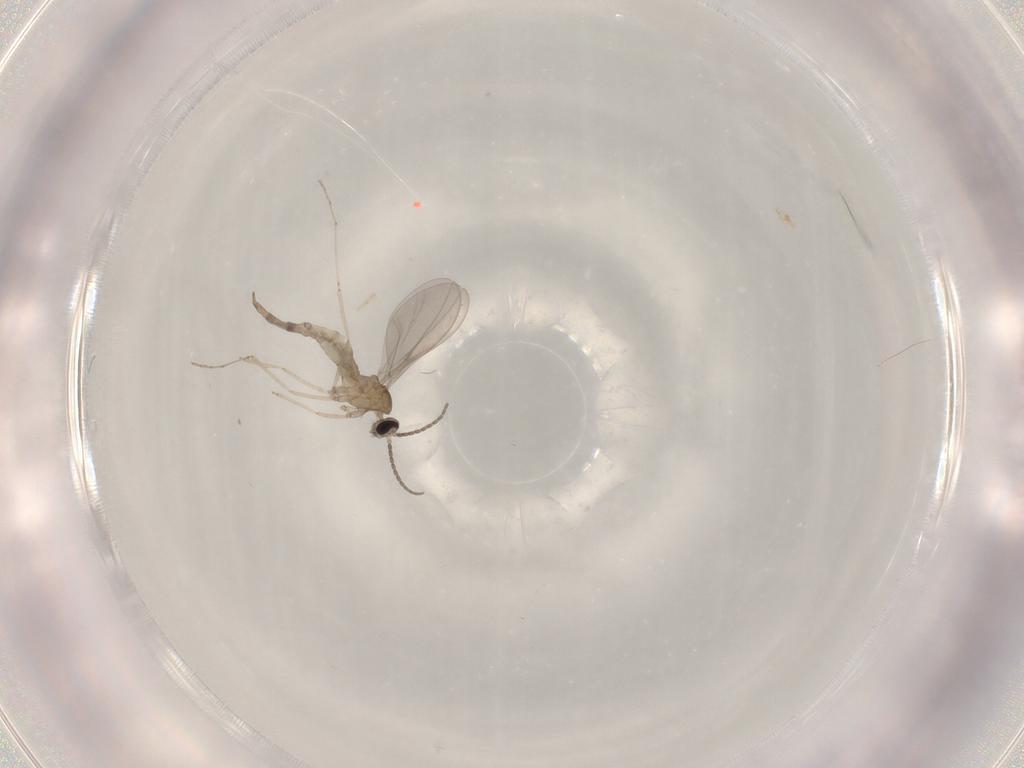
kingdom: Animalia
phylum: Arthropoda
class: Insecta
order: Diptera
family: Cecidomyiidae
